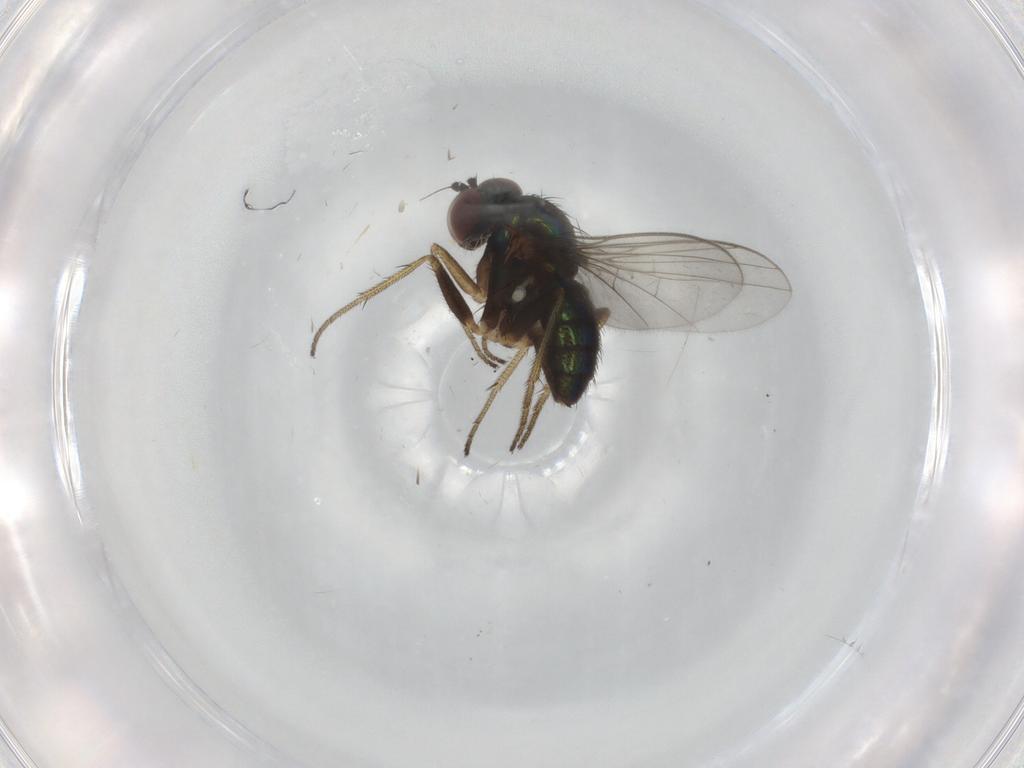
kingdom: Animalia
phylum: Arthropoda
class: Insecta
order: Diptera
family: Dolichopodidae
